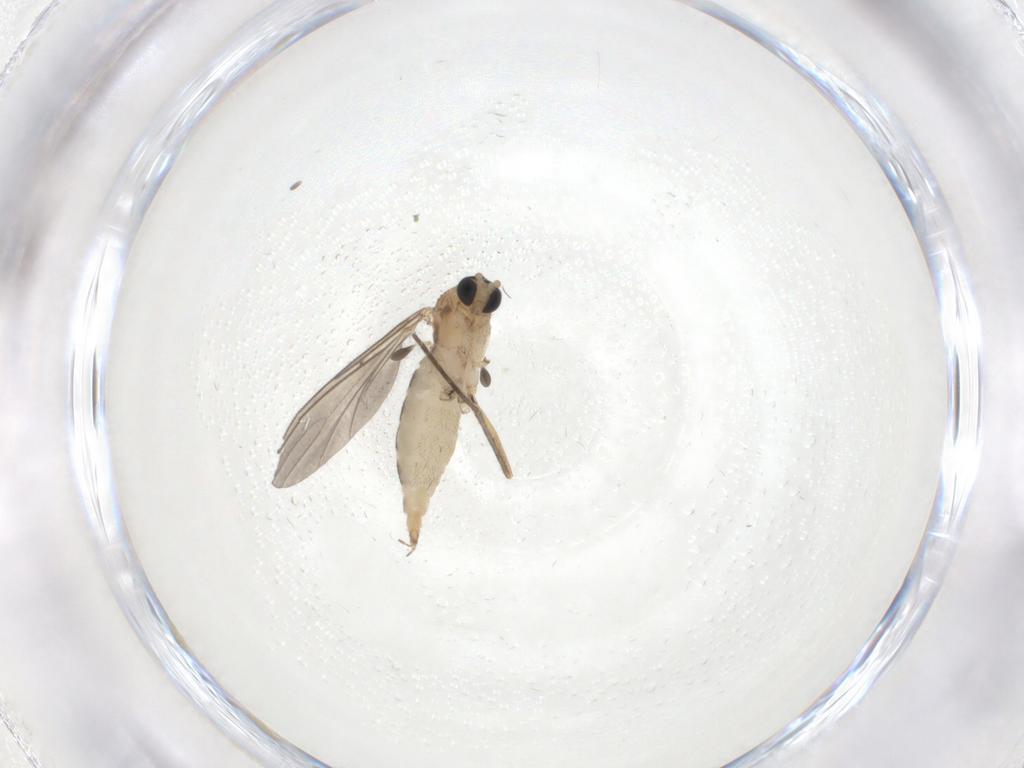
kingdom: Animalia
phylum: Arthropoda
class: Insecta
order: Diptera
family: Sciaridae
